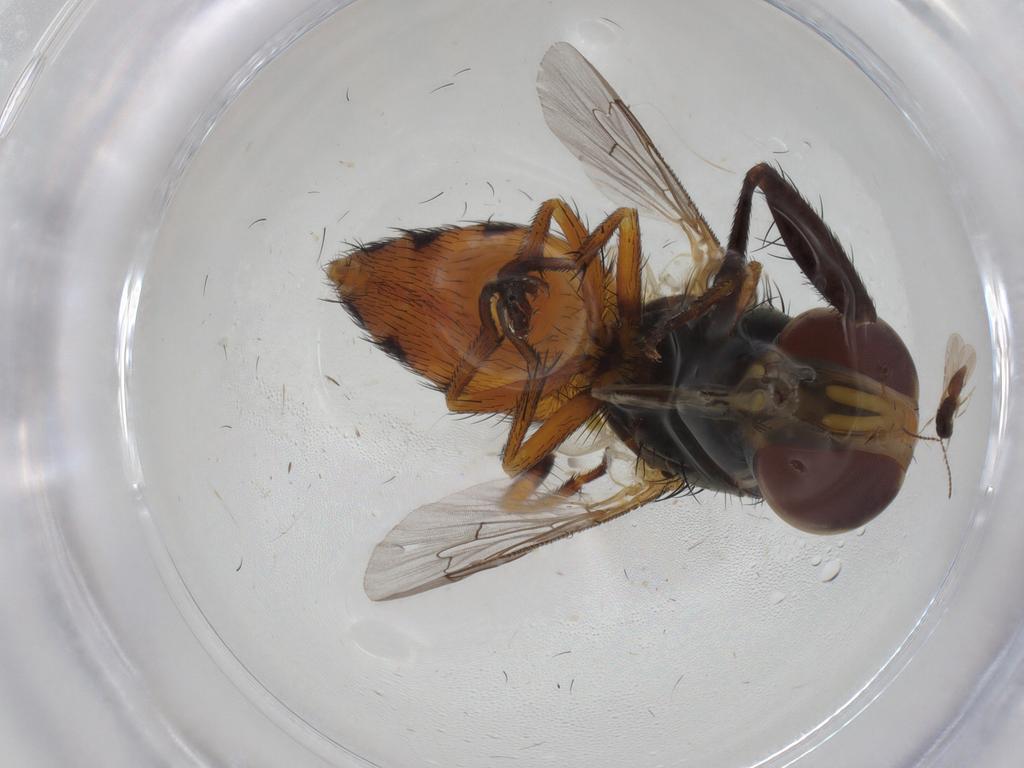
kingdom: Animalia
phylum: Arthropoda
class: Insecta
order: Diptera
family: Sarcophagidae
